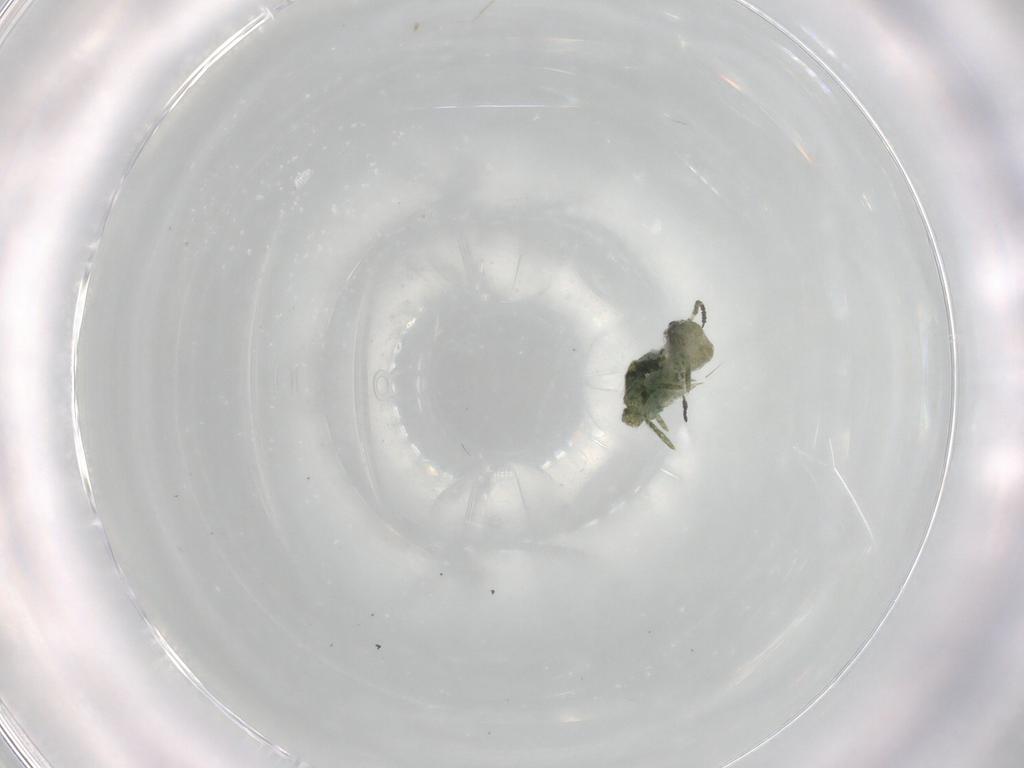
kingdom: Animalia
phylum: Arthropoda
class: Collembola
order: Symphypleona
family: Sminthuridae
